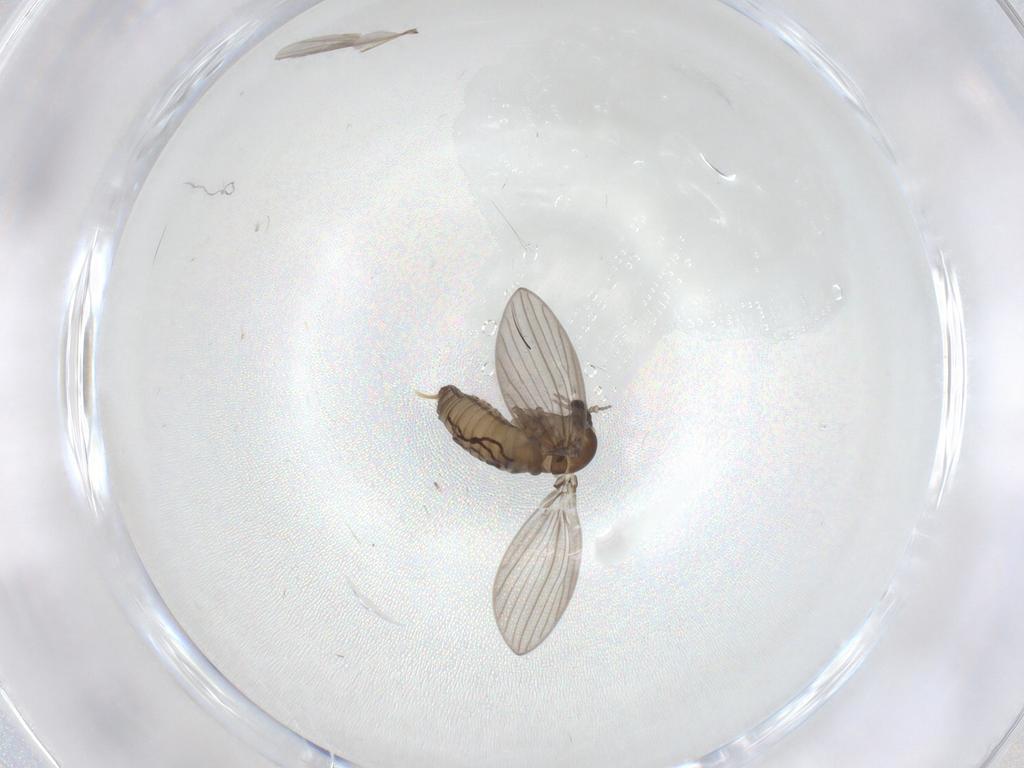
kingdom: Animalia
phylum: Arthropoda
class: Insecta
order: Diptera
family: Psychodidae
